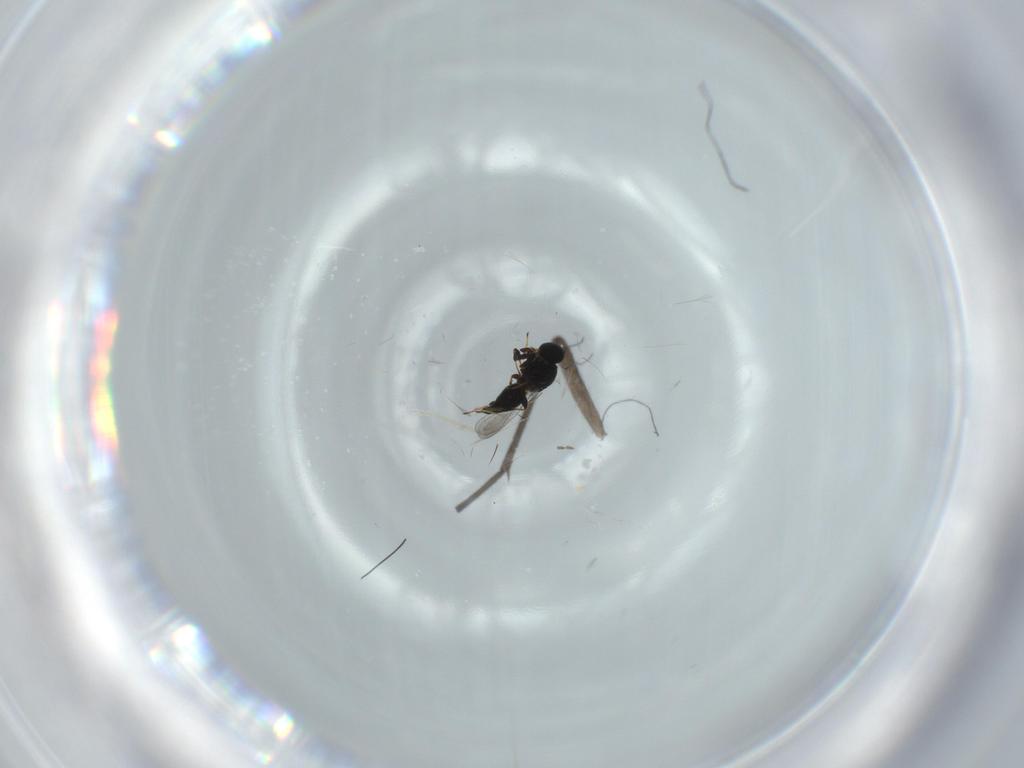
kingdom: Animalia
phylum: Arthropoda
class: Insecta
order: Hymenoptera
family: Platygastridae
